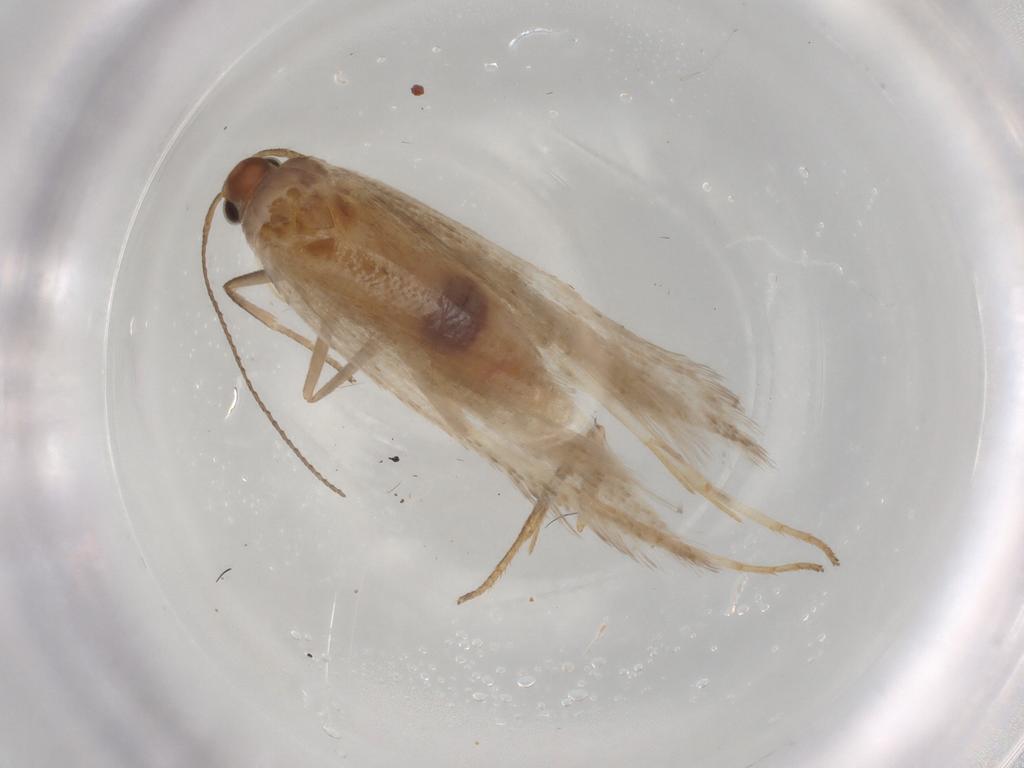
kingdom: Animalia
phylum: Arthropoda
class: Insecta
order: Lepidoptera
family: Gelechiidae
